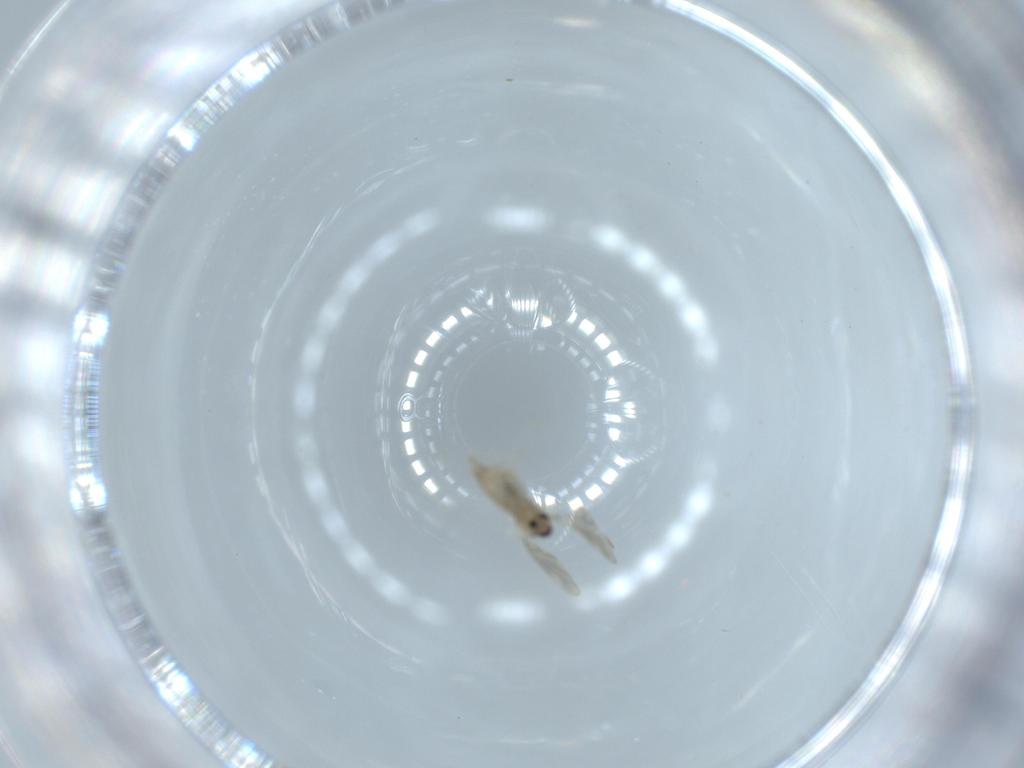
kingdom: Animalia
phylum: Arthropoda
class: Insecta
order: Diptera
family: Cecidomyiidae
